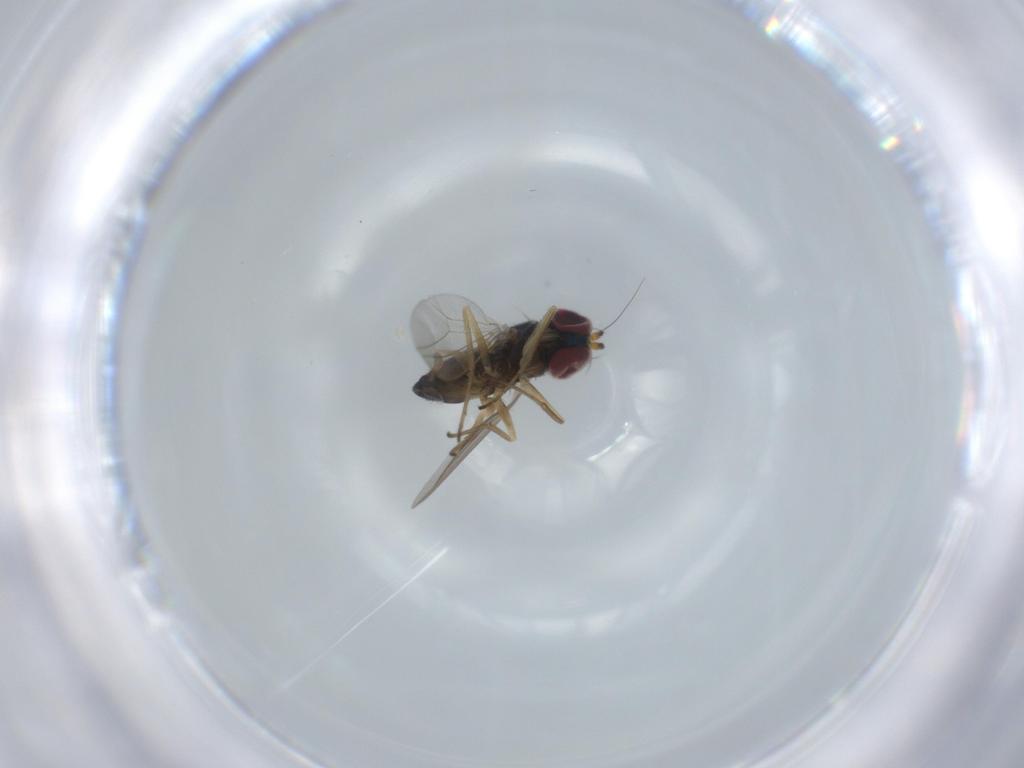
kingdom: Animalia
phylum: Arthropoda
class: Insecta
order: Diptera
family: Dolichopodidae
